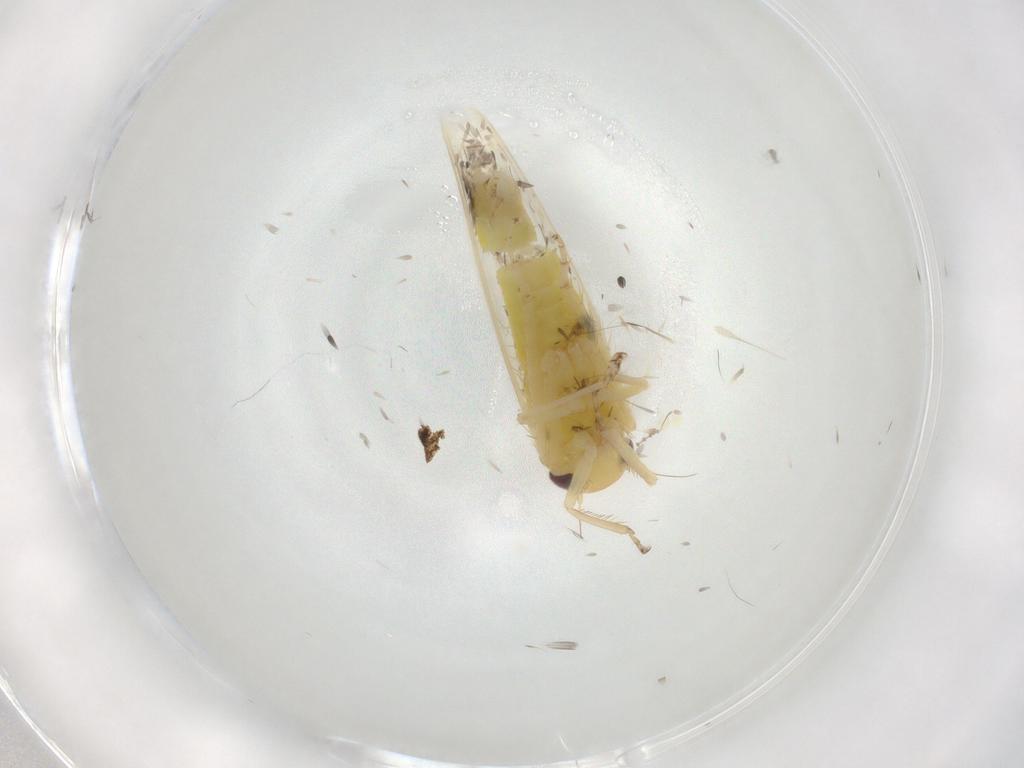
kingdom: Animalia
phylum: Arthropoda
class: Insecta
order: Hemiptera
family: Cicadellidae
